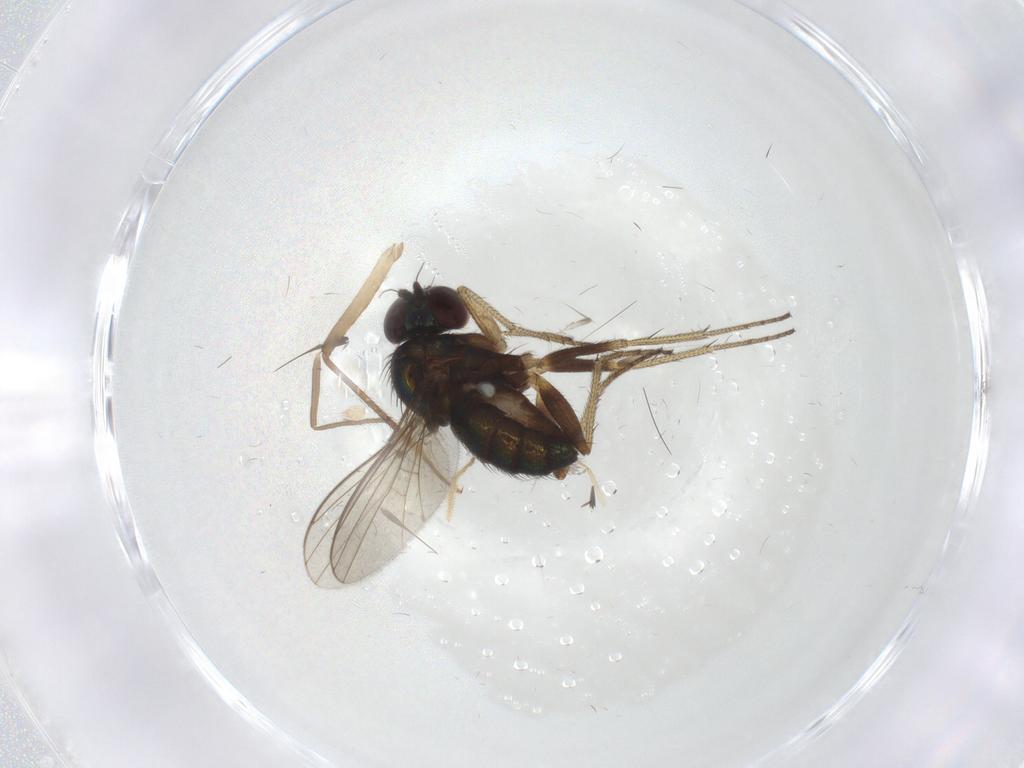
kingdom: Animalia
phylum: Arthropoda
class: Insecta
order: Diptera
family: Chironomidae
